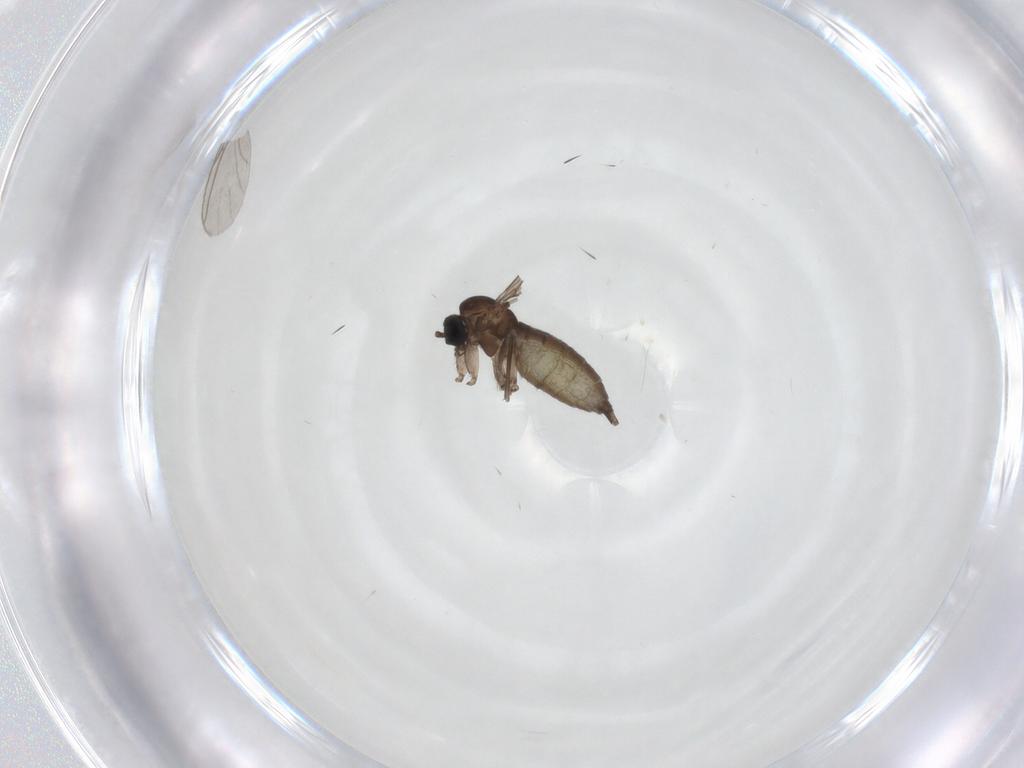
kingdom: Animalia
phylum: Arthropoda
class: Insecta
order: Diptera
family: Sciaridae
